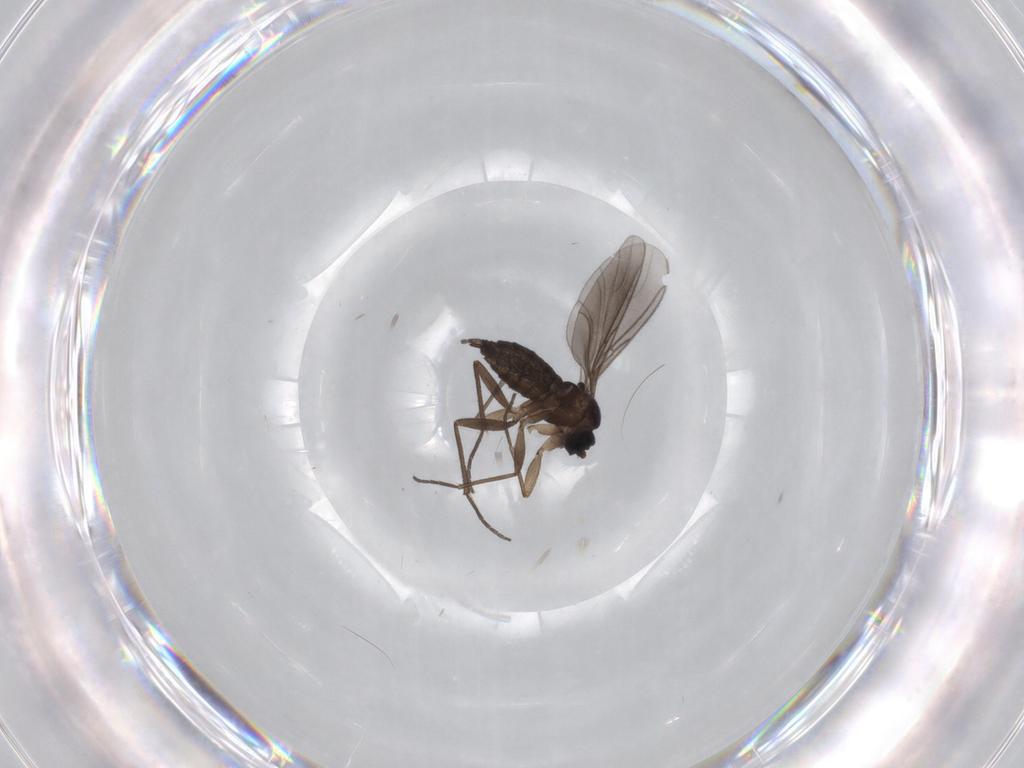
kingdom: Animalia
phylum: Arthropoda
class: Insecta
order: Diptera
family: Sciaridae
